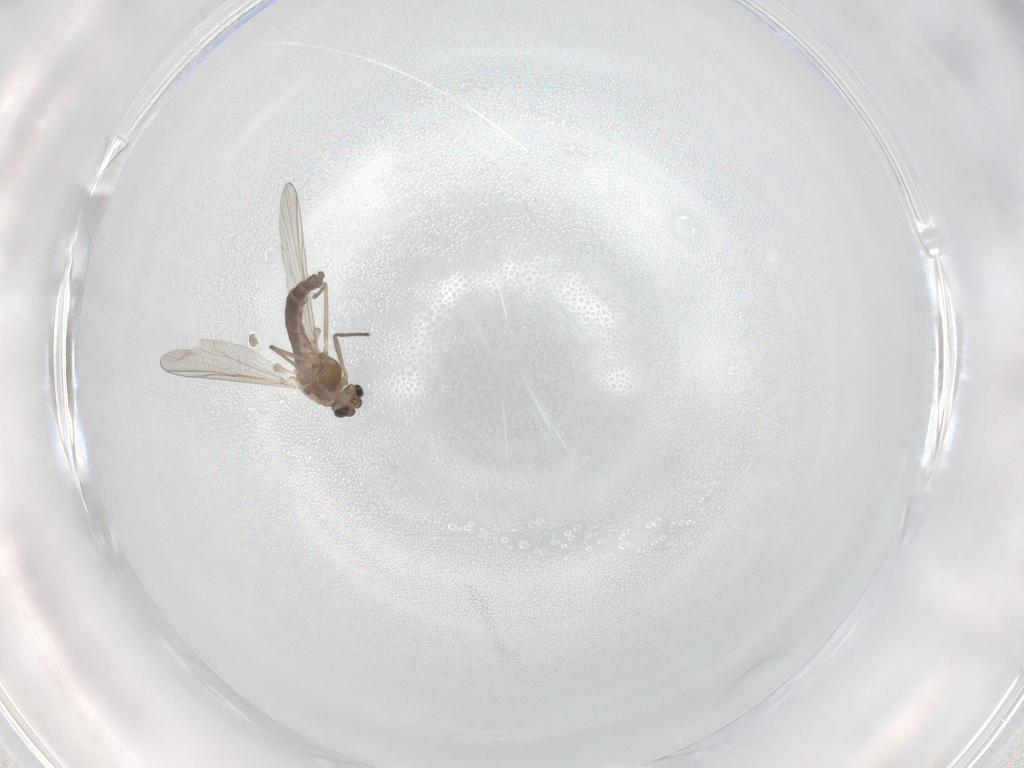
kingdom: Animalia
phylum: Arthropoda
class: Insecta
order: Diptera
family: Chironomidae
